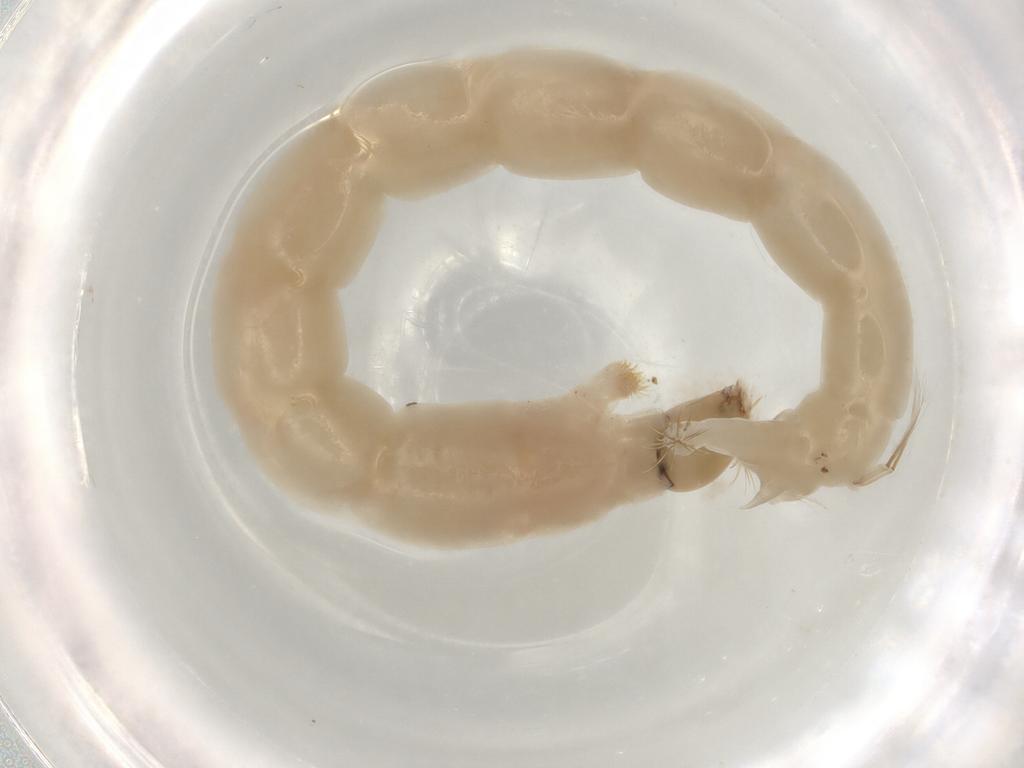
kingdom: Animalia
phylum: Arthropoda
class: Insecta
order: Diptera
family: Chironomidae
